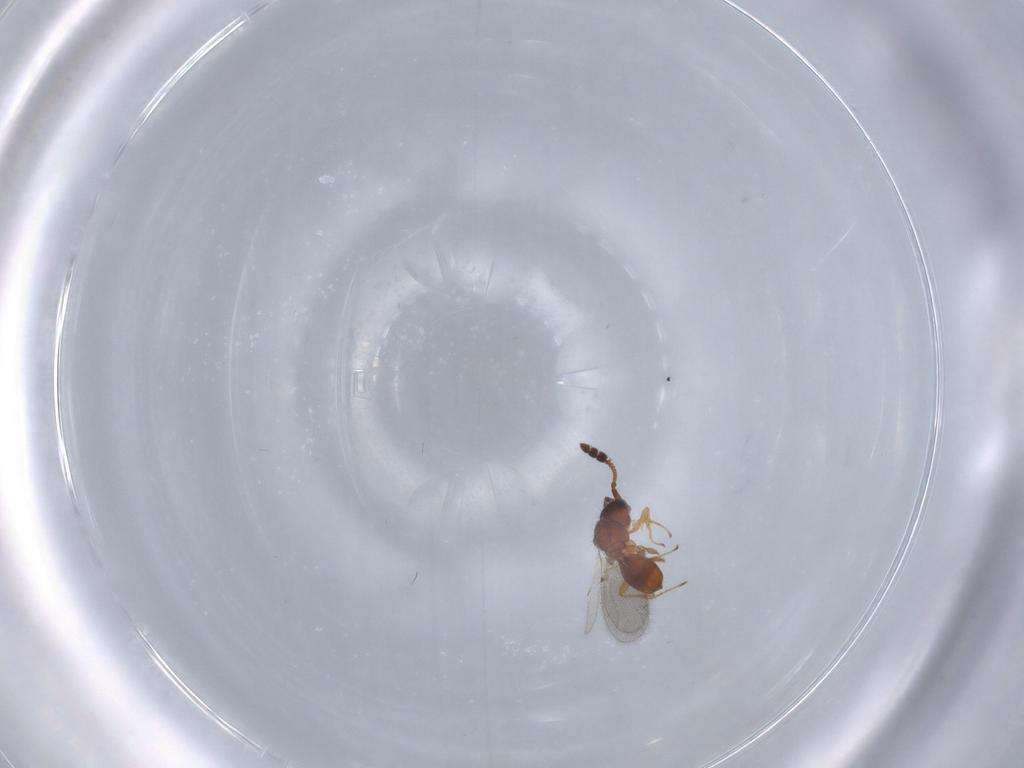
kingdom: Animalia
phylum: Arthropoda
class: Insecta
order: Hymenoptera
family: Diapriidae
